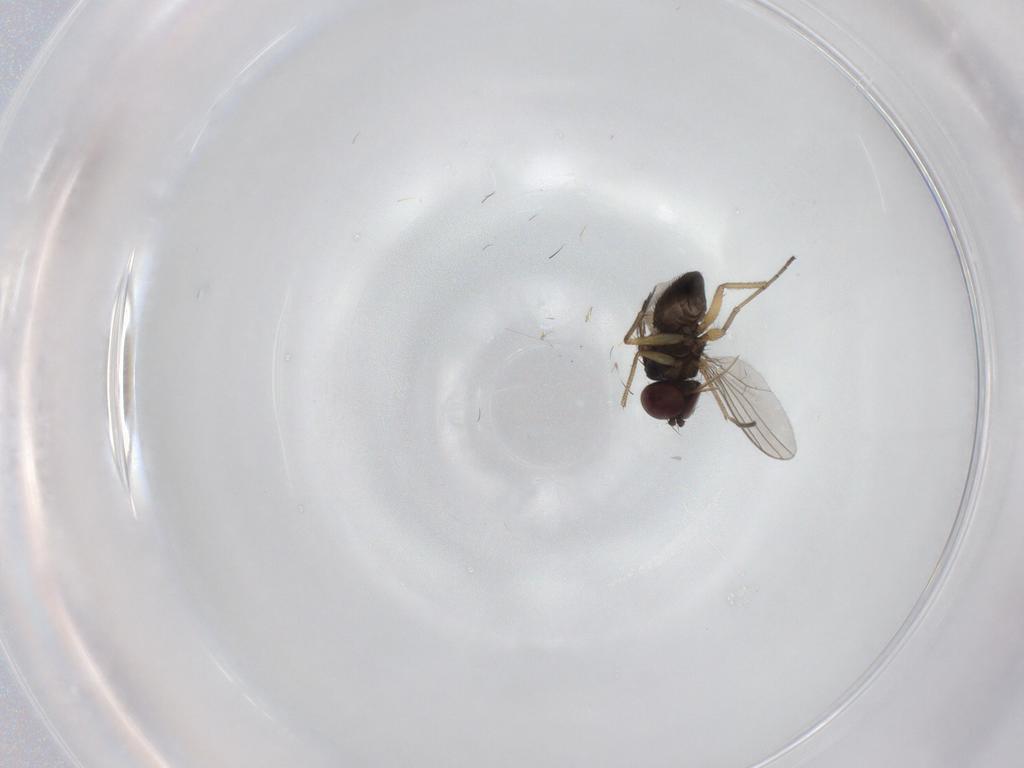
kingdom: Animalia
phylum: Arthropoda
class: Insecta
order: Diptera
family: Dolichopodidae
